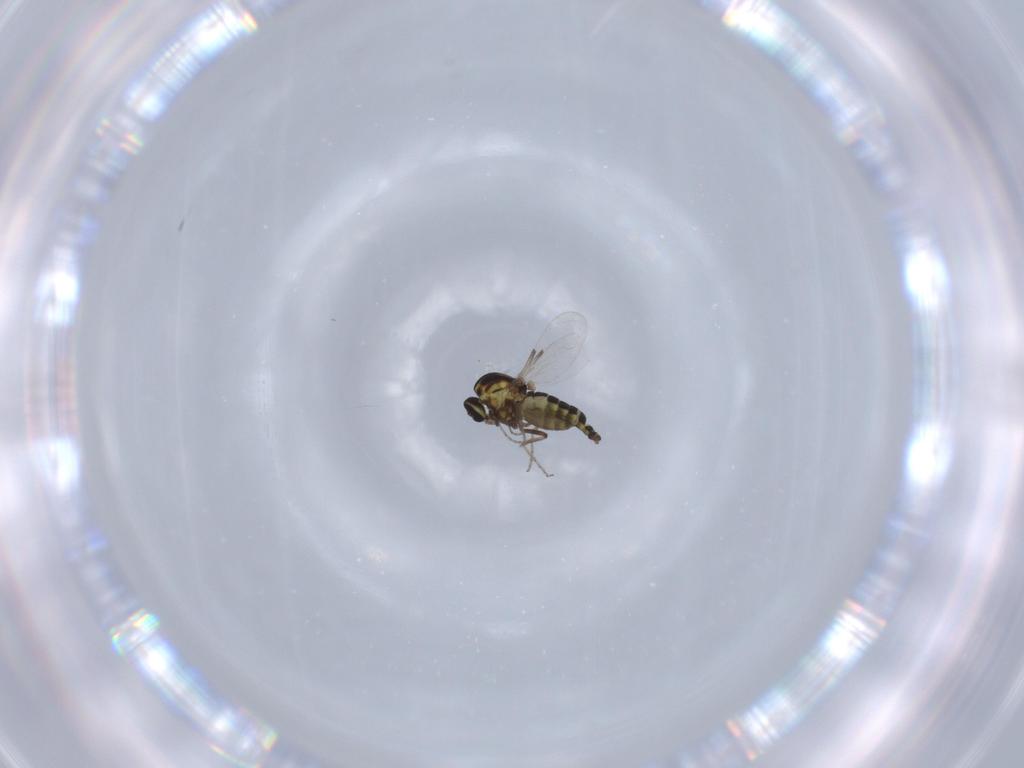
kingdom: Animalia
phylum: Arthropoda
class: Insecta
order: Diptera
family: Ceratopogonidae
